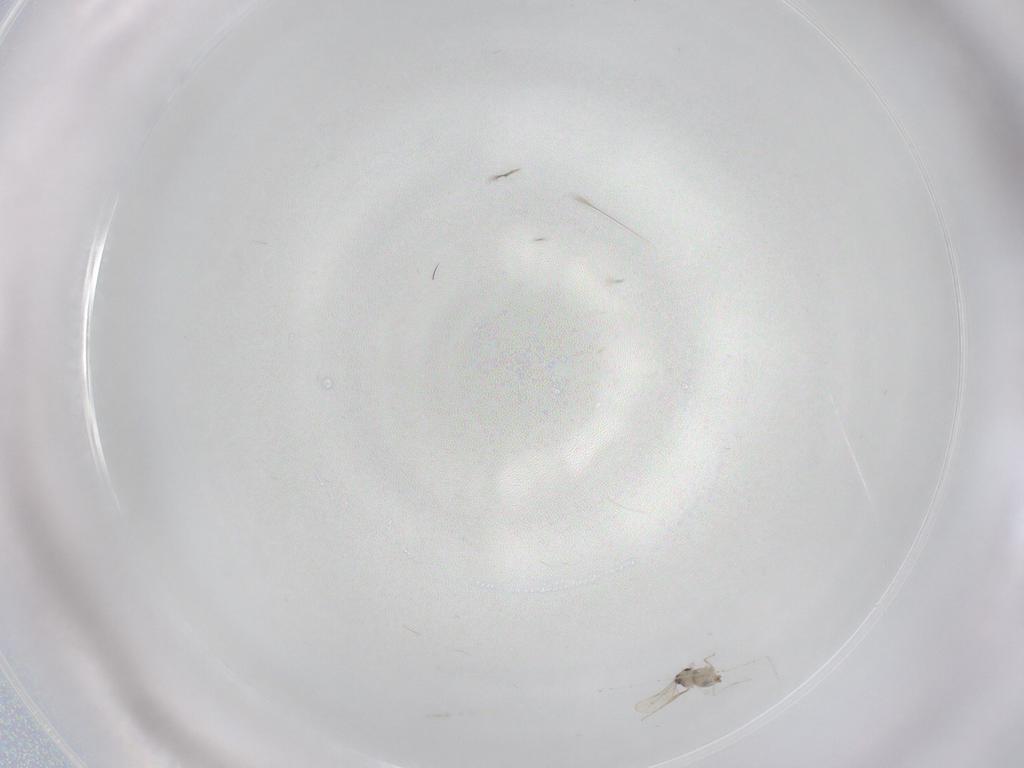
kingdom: Animalia
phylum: Arthropoda
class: Insecta
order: Diptera
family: Cecidomyiidae
